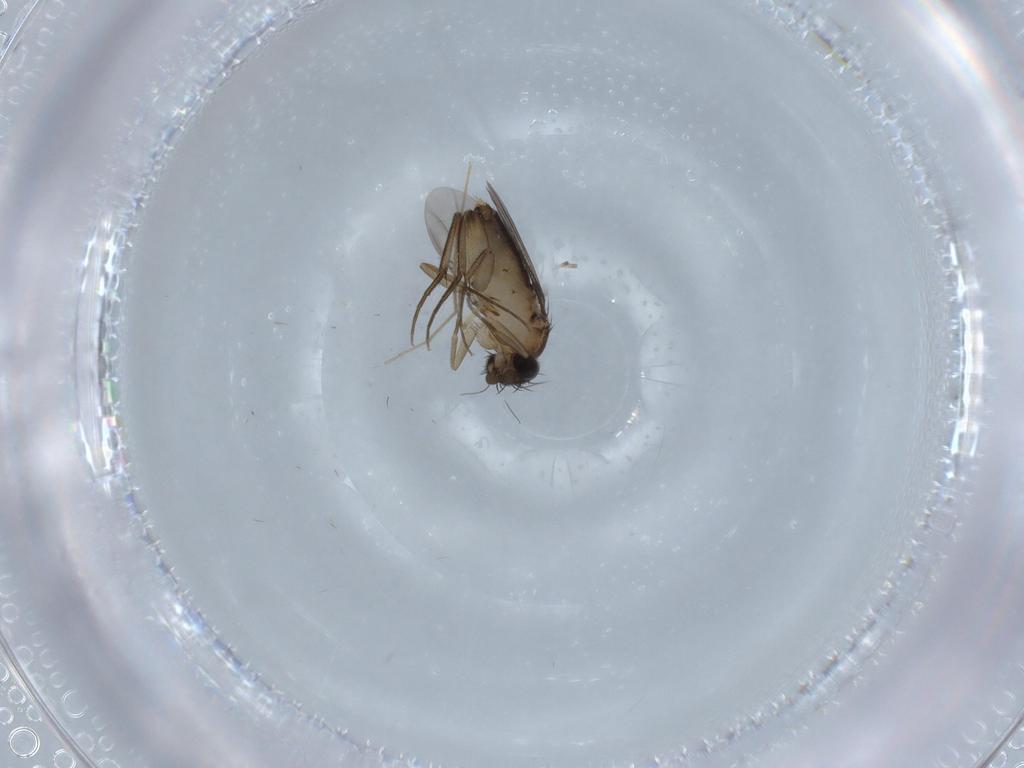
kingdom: Animalia
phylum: Arthropoda
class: Insecta
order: Diptera
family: Phoridae
